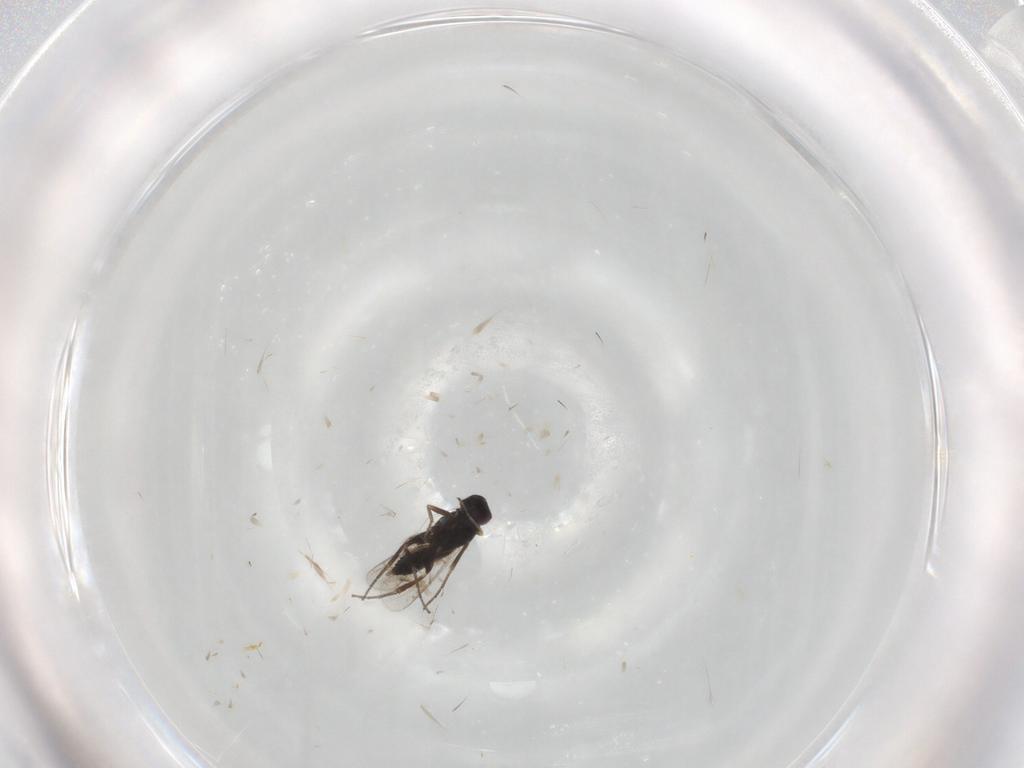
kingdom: Animalia
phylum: Arthropoda
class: Insecta
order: Hymenoptera
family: Eulophidae
